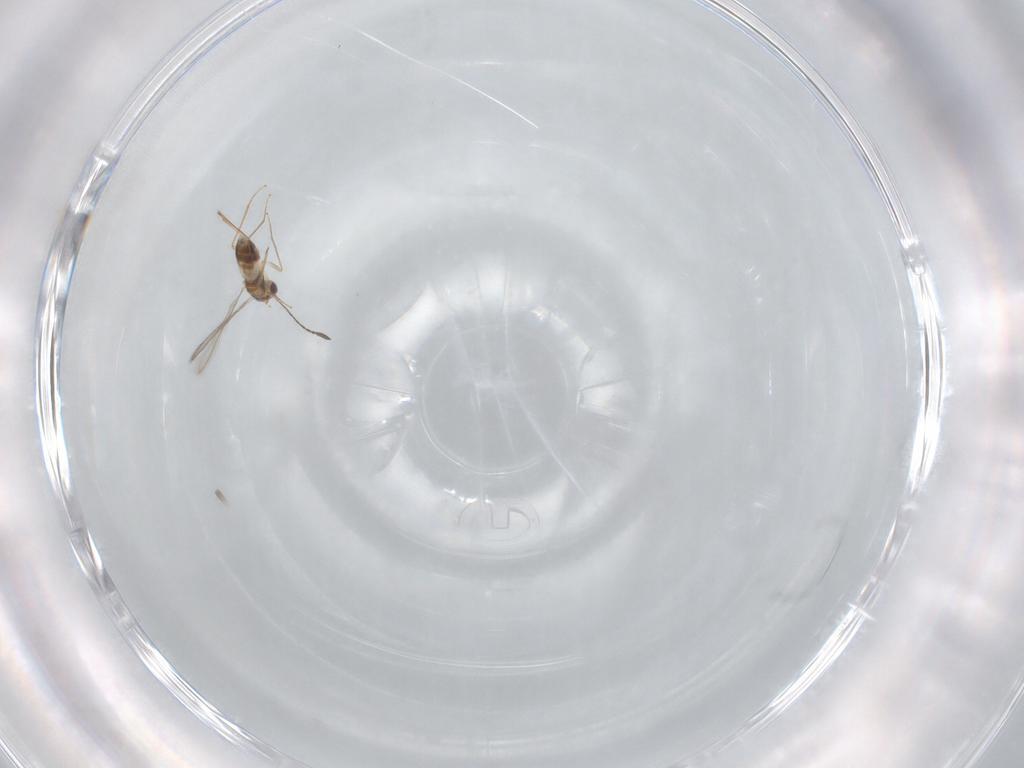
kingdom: Animalia
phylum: Arthropoda
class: Insecta
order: Hymenoptera
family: Mymaridae
